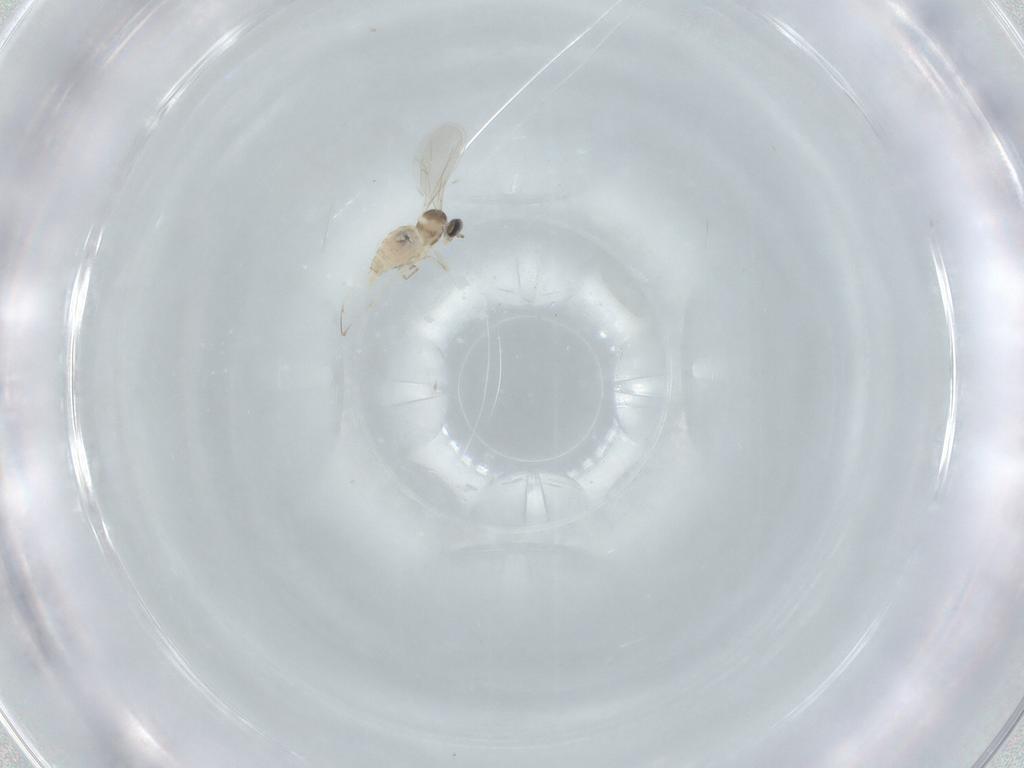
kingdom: Animalia
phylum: Arthropoda
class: Insecta
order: Diptera
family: Cecidomyiidae
